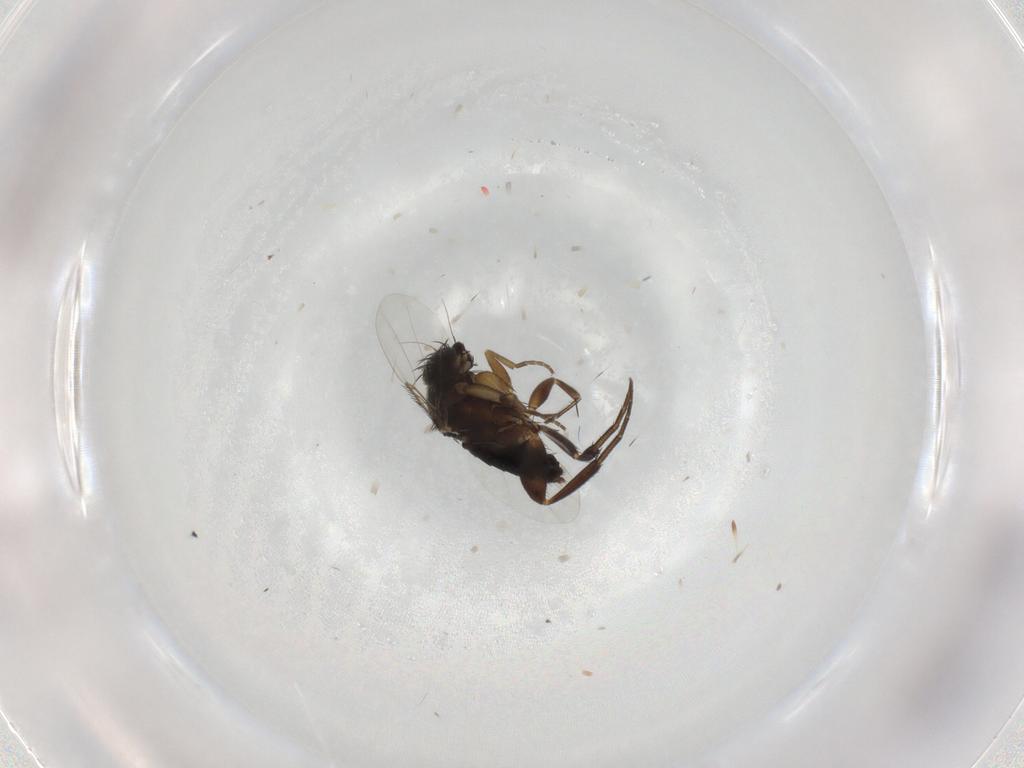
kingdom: Animalia
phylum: Arthropoda
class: Insecta
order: Diptera
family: Phoridae
